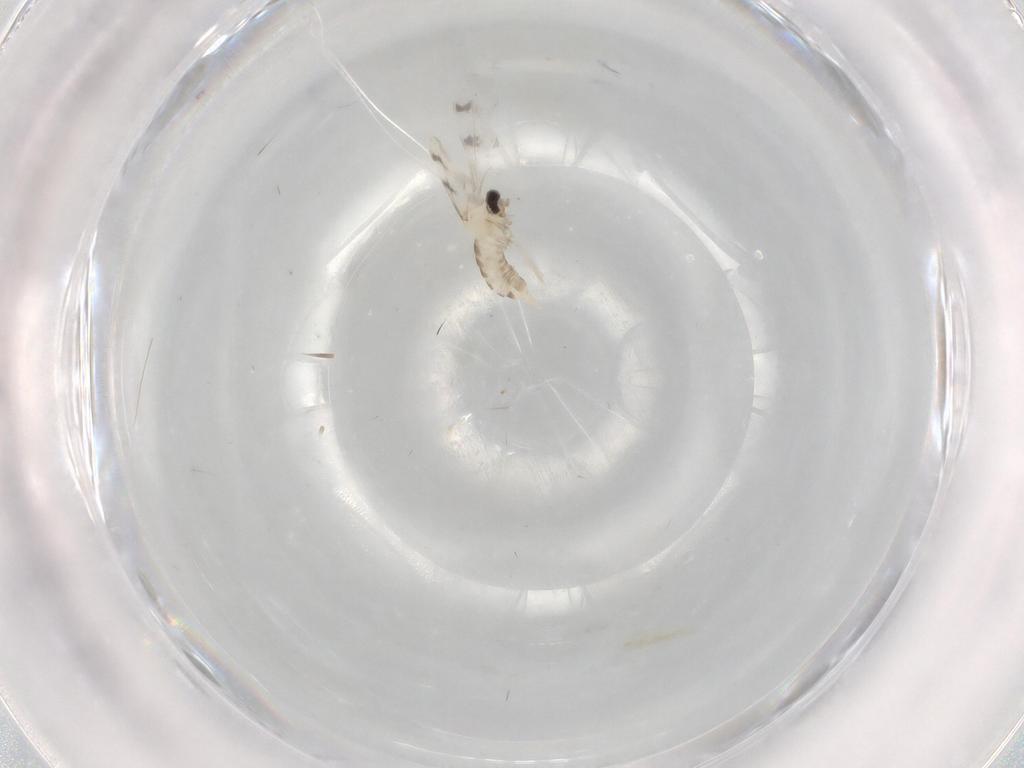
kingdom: Animalia
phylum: Arthropoda
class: Insecta
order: Diptera
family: Cecidomyiidae
